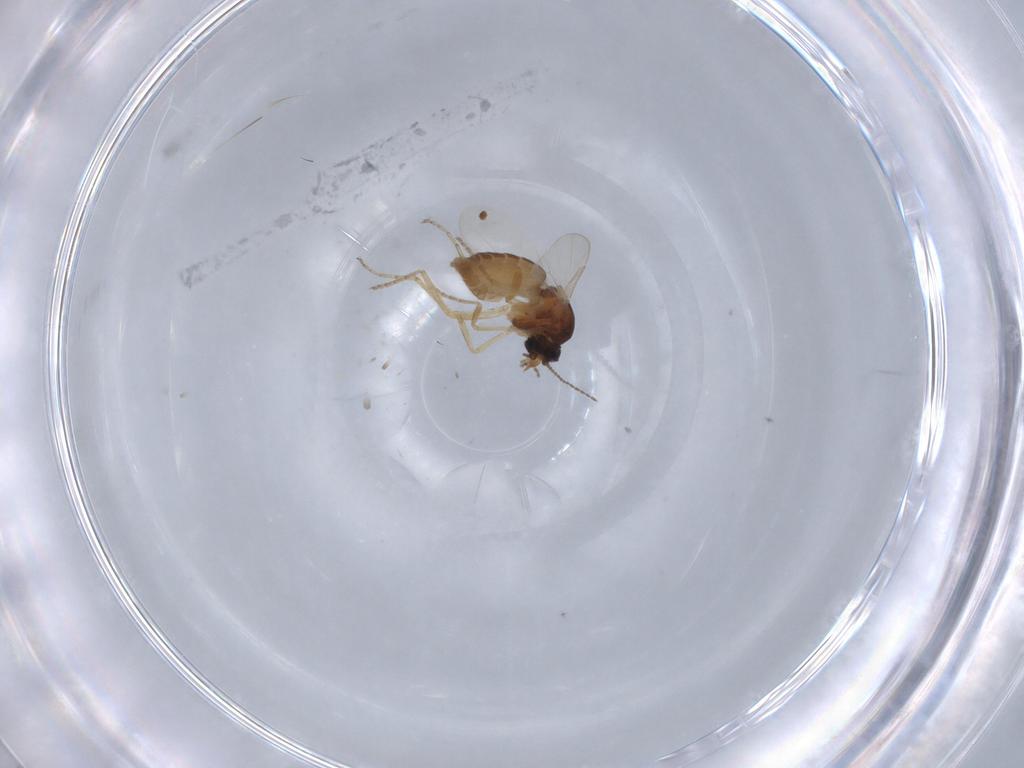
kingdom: Animalia
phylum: Arthropoda
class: Insecta
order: Diptera
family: Ceratopogonidae
